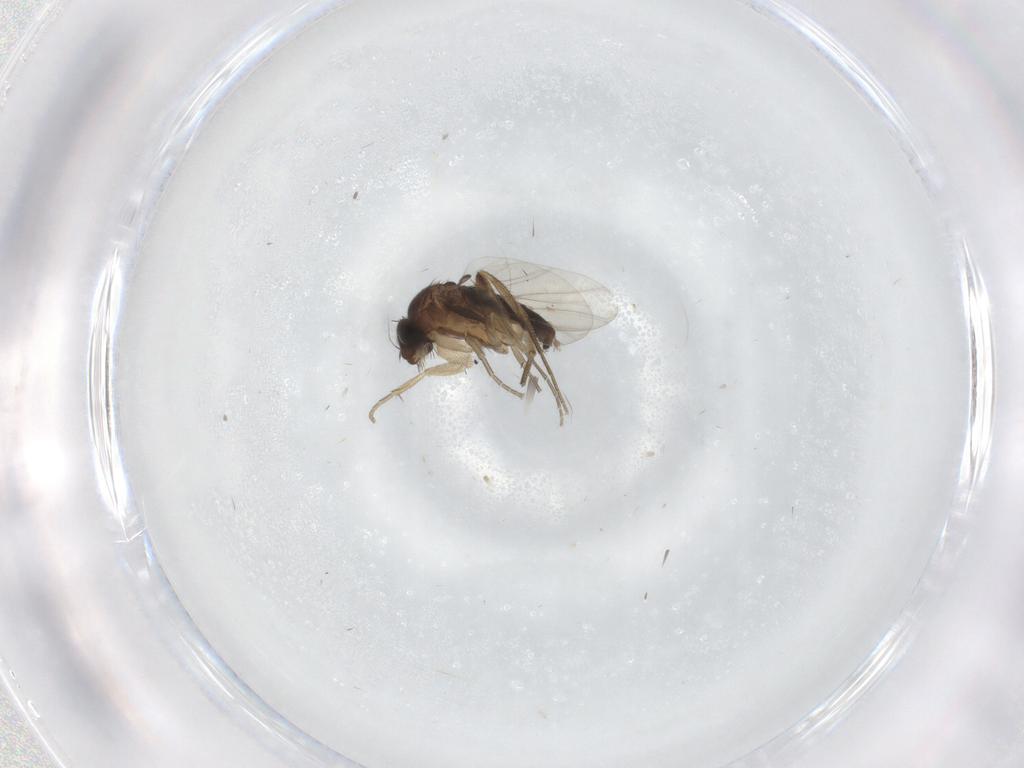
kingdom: Animalia
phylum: Arthropoda
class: Insecta
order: Diptera
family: Phoridae
